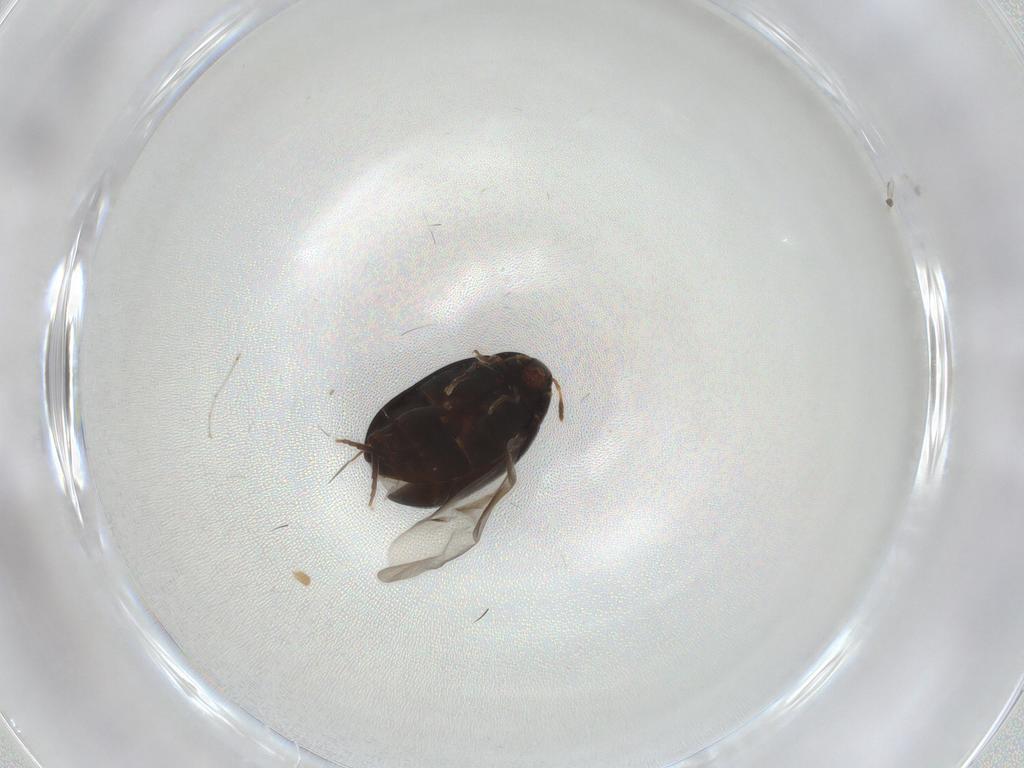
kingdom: Animalia
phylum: Arthropoda
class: Insecta
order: Coleoptera
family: Melandryidae
